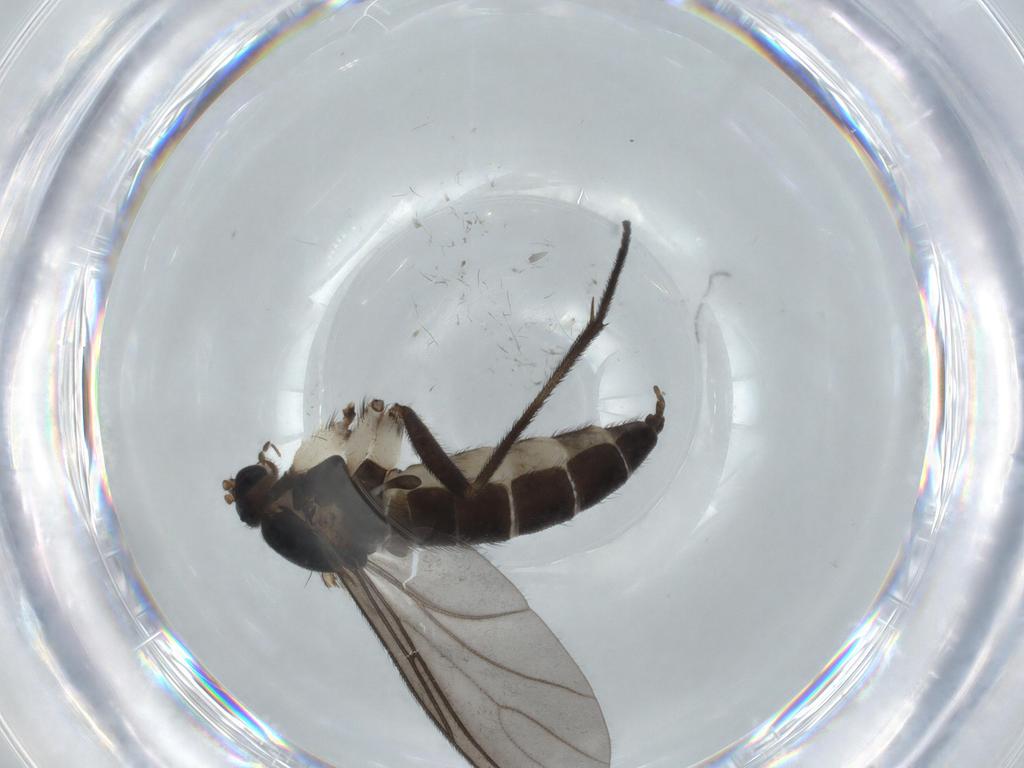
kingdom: Animalia
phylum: Arthropoda
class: Insecta
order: Diptera
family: Sciaridae
